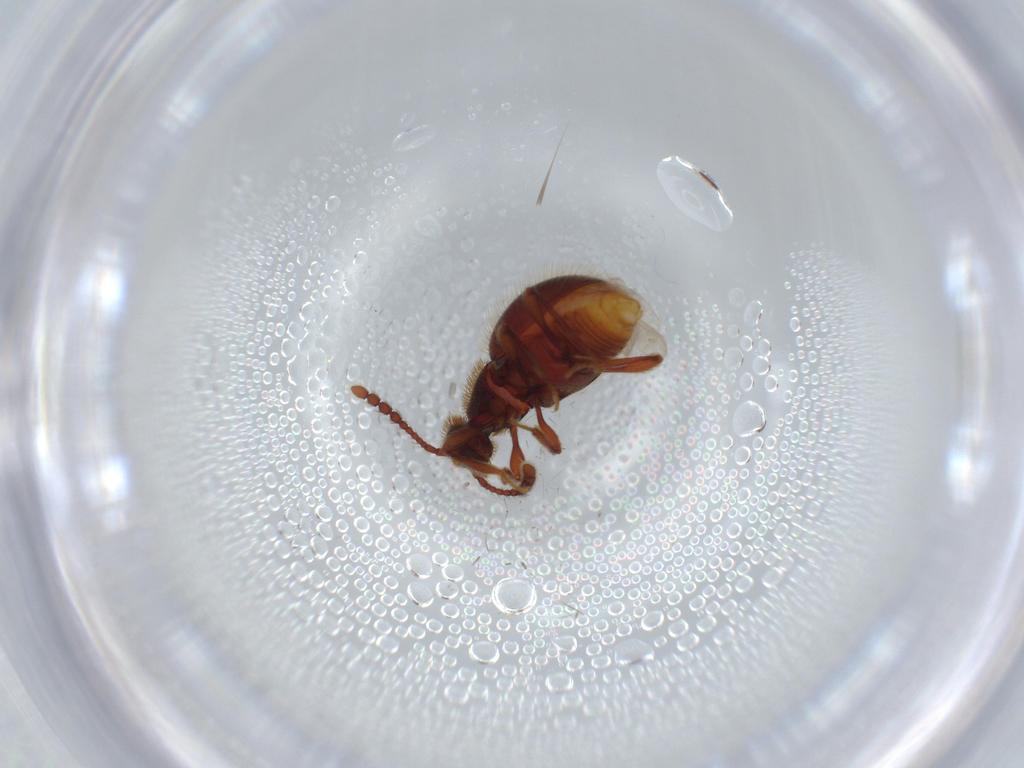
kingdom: Animalia
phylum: Arthropoda
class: Insecta
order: Coleoptera
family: Staphylinidae
